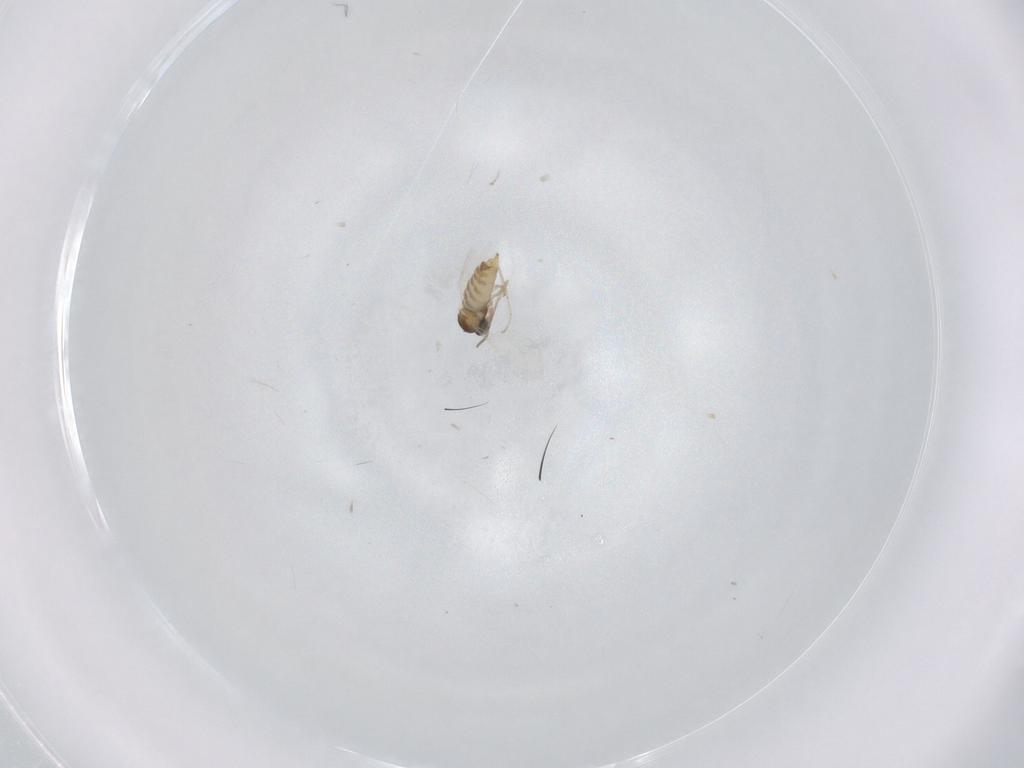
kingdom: Animalia
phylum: Arthropoda
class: Insecta
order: Diptera
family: Cecidomyiidae
